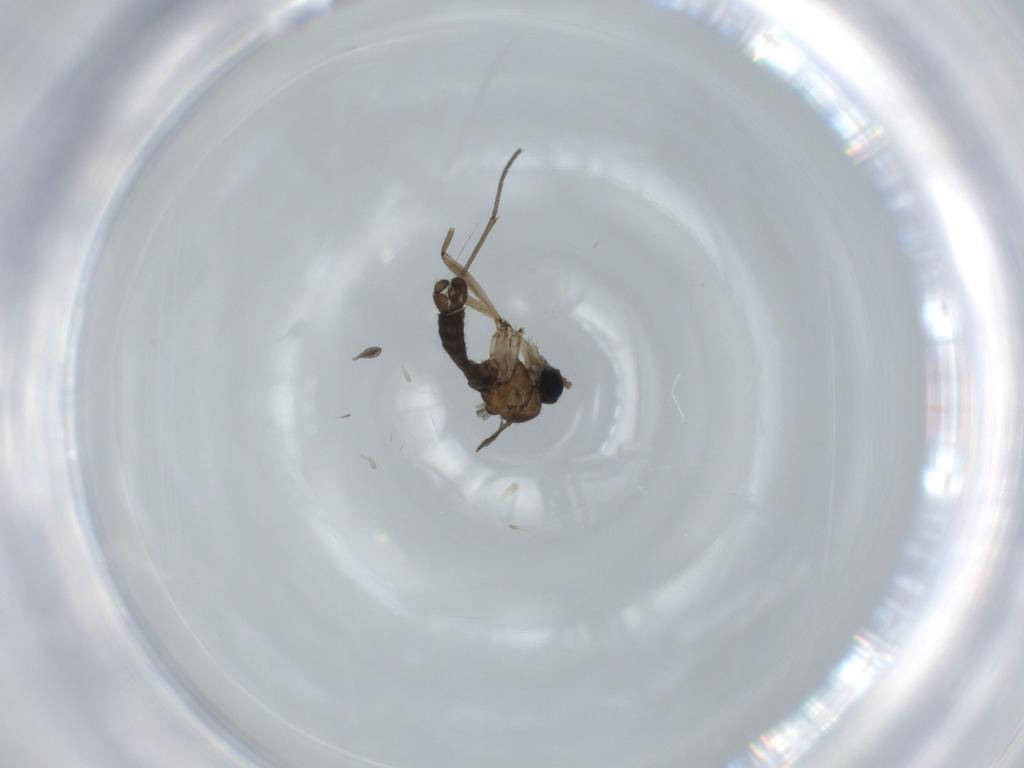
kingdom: Animalia
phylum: Arthropoda
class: Insecta
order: Diptera
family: Sciaridae
